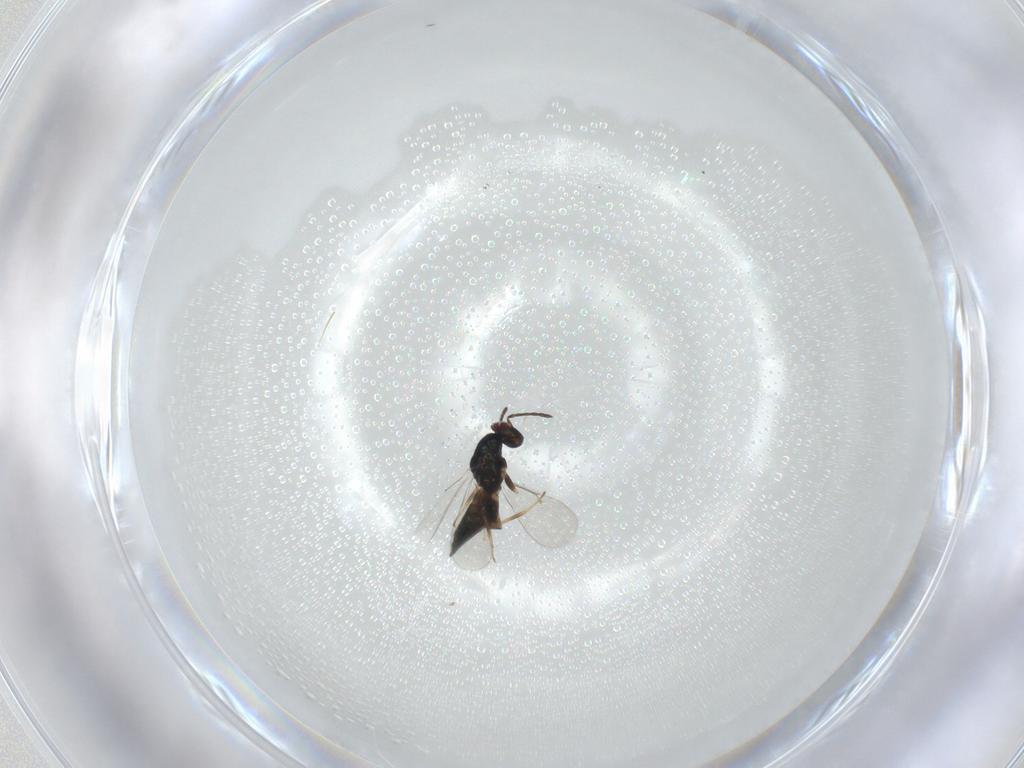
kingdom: Animalia
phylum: Arthropoda
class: Insecta
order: Hymenoptera
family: Eulophidae
